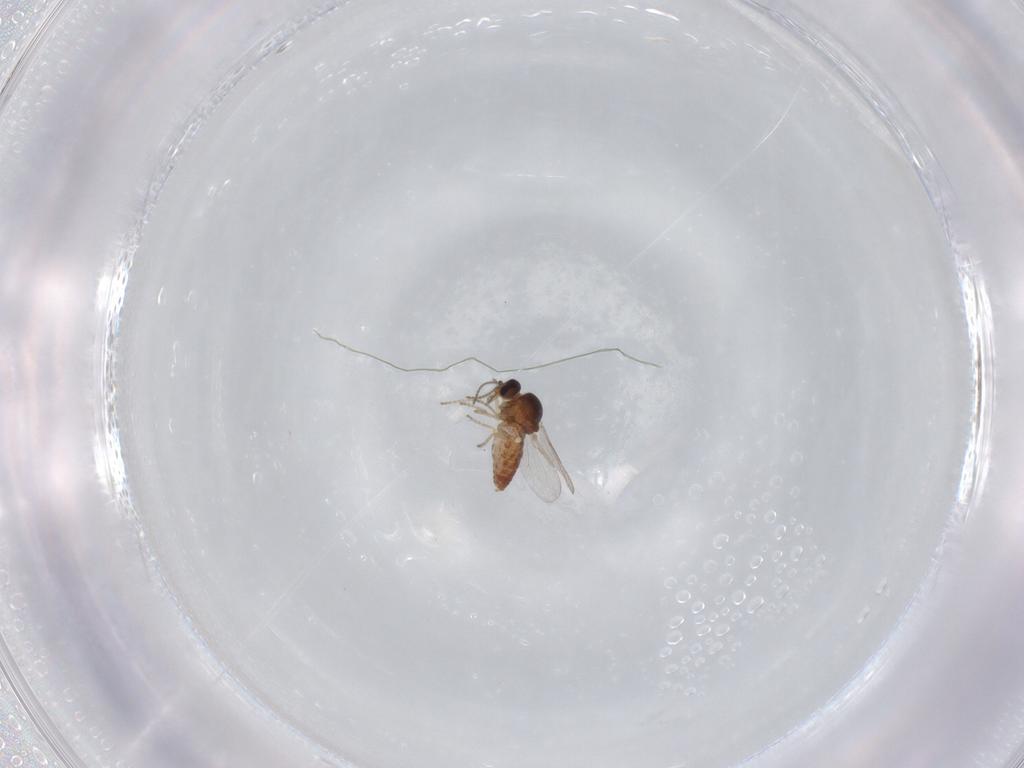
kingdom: Animalia
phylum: Arthropoda
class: Insecta
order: Diptera
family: Ceratopogonidae
